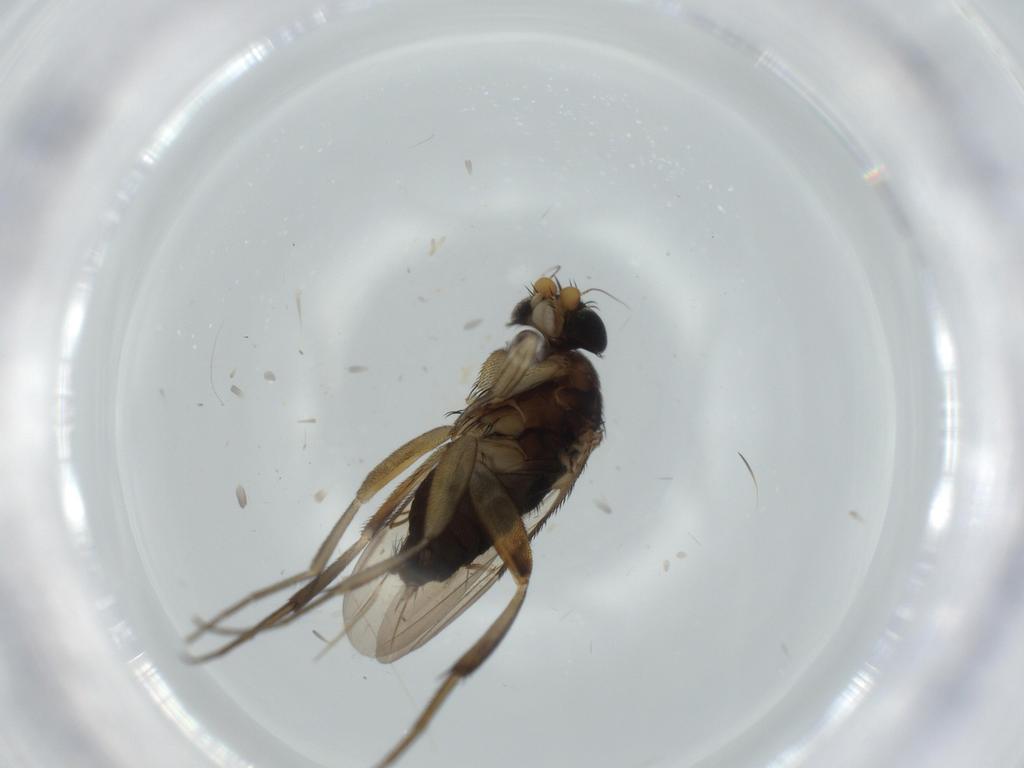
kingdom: Animalia
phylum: Arthropoda
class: Insecta
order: Diptera
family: Phoridae
